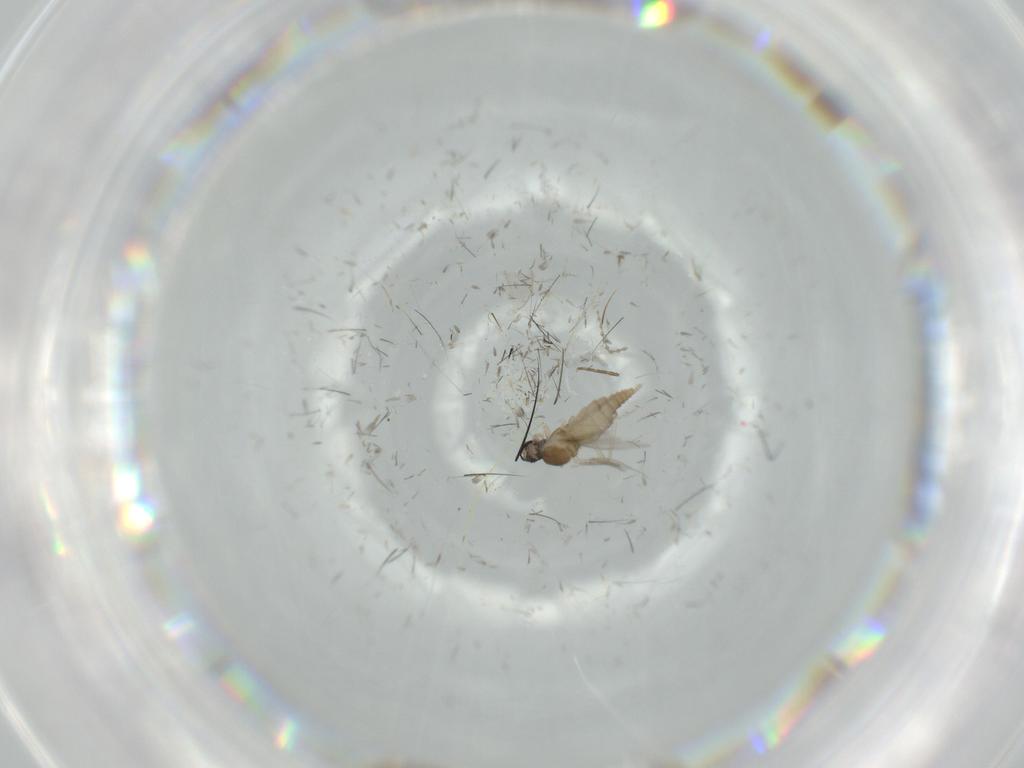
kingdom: Animalia
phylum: Arthropoda
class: Insecta
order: Diptera
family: Cecidomyiidae
